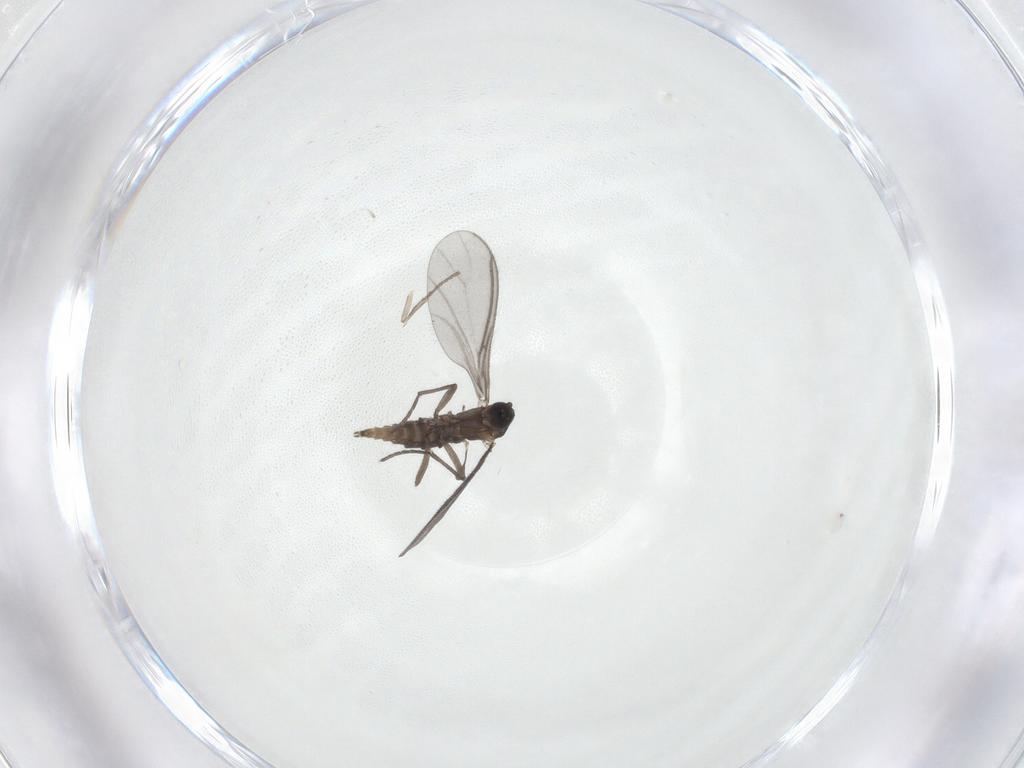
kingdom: Animalia
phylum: Arthropoda
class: Insecta
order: Diptera
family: Psychodidae
